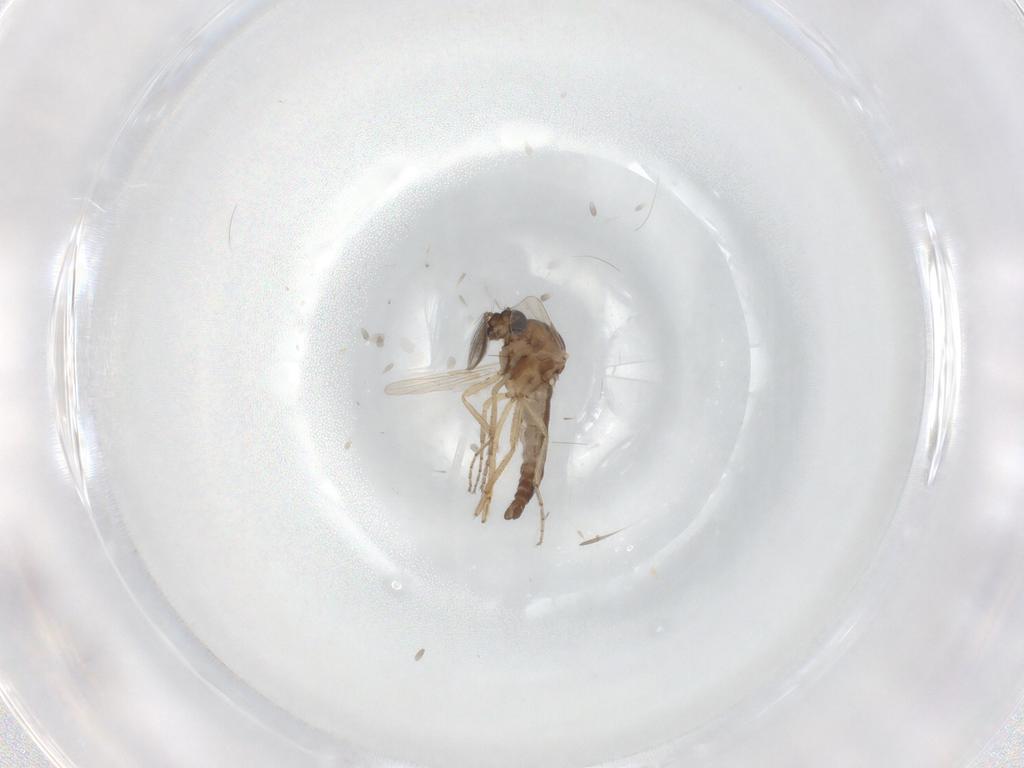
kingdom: Animalia
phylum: Arthropoda
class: Insecta
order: Diptera
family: Ceratopogonidae
